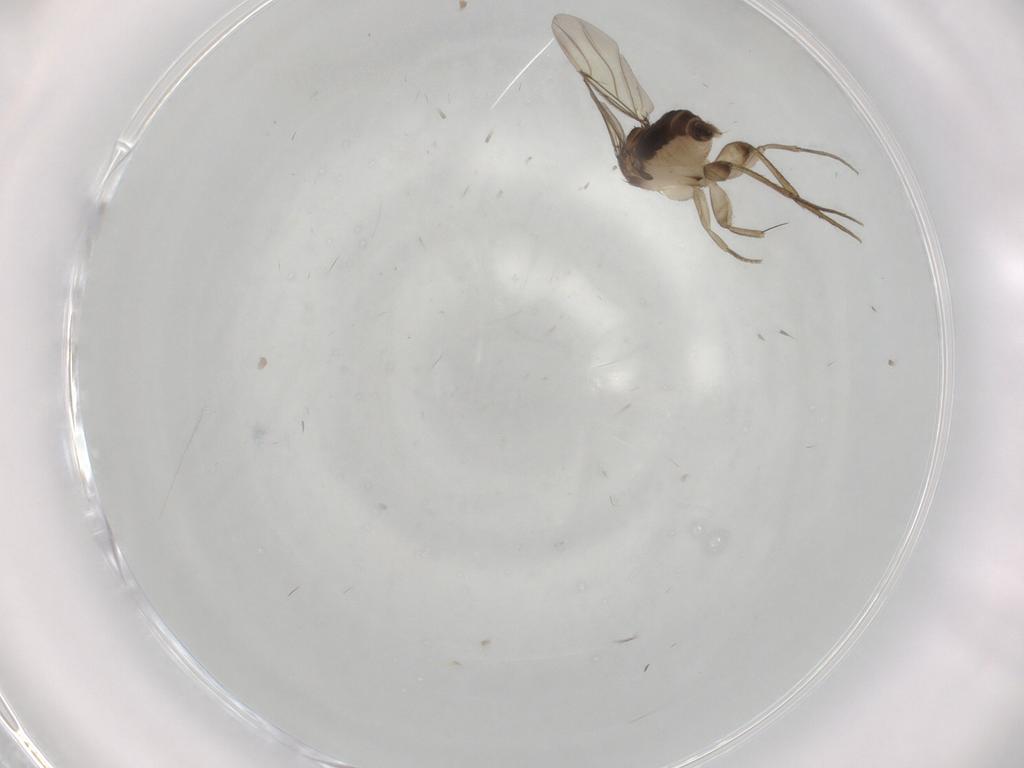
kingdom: Animalia
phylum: Arthropoda
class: Insecta
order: Diptera
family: Phoridae
